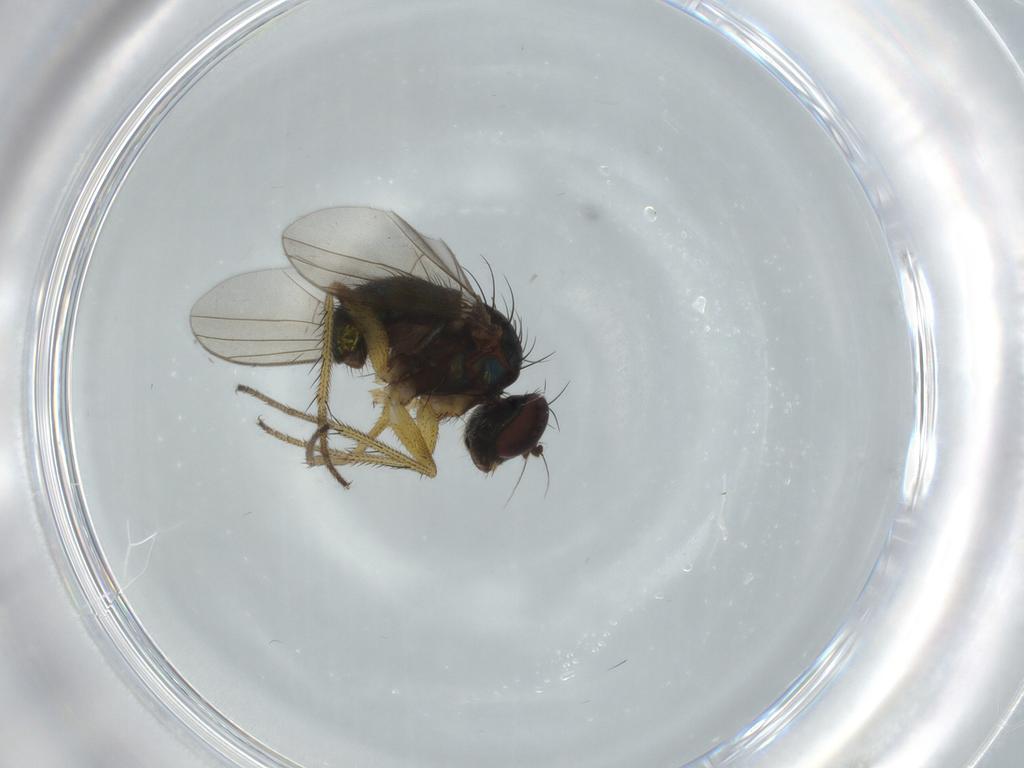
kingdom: Animalia
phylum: Arthropoda
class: Insecta
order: Diptera
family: Dolichopodidae
